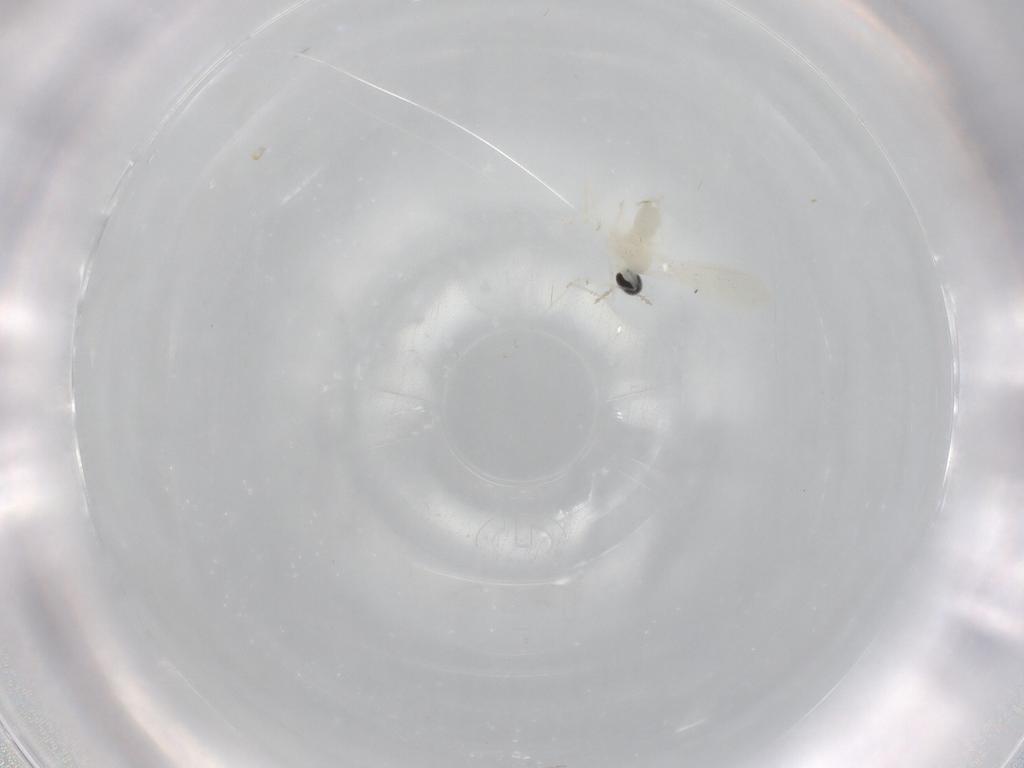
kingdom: Animalia
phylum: Arthropoda
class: Insecta
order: Diptera
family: Cecidomyiidae
